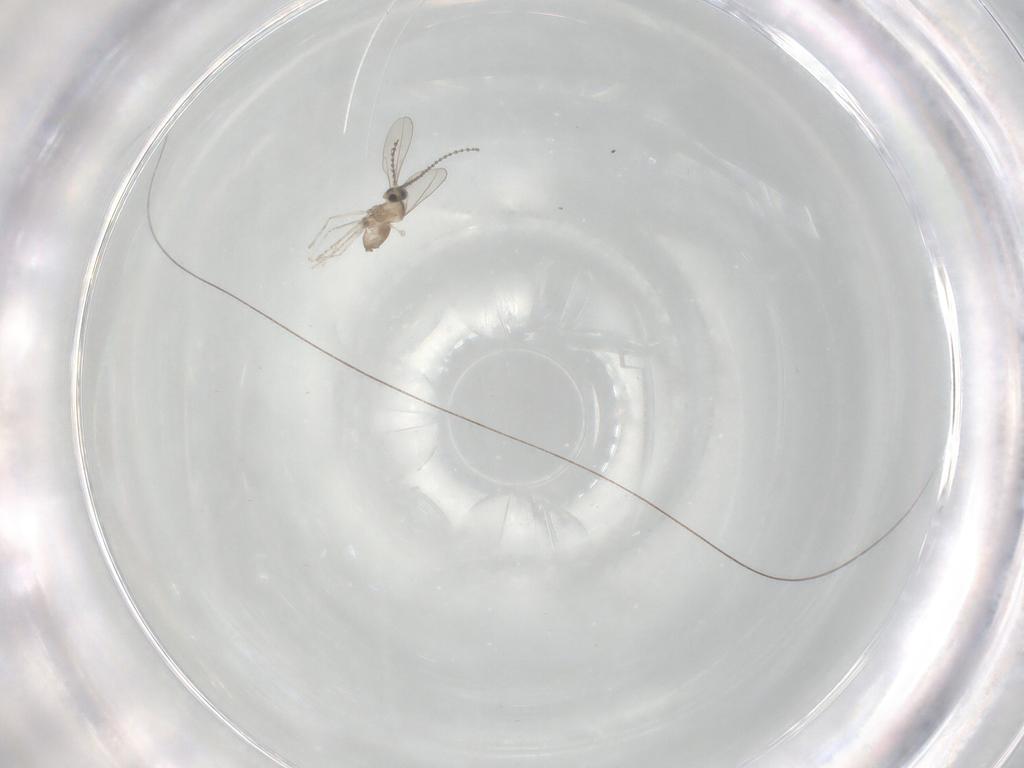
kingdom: Animalia
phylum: Arthropoda
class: Insecta
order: Diptera
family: Cecidomyiidae
